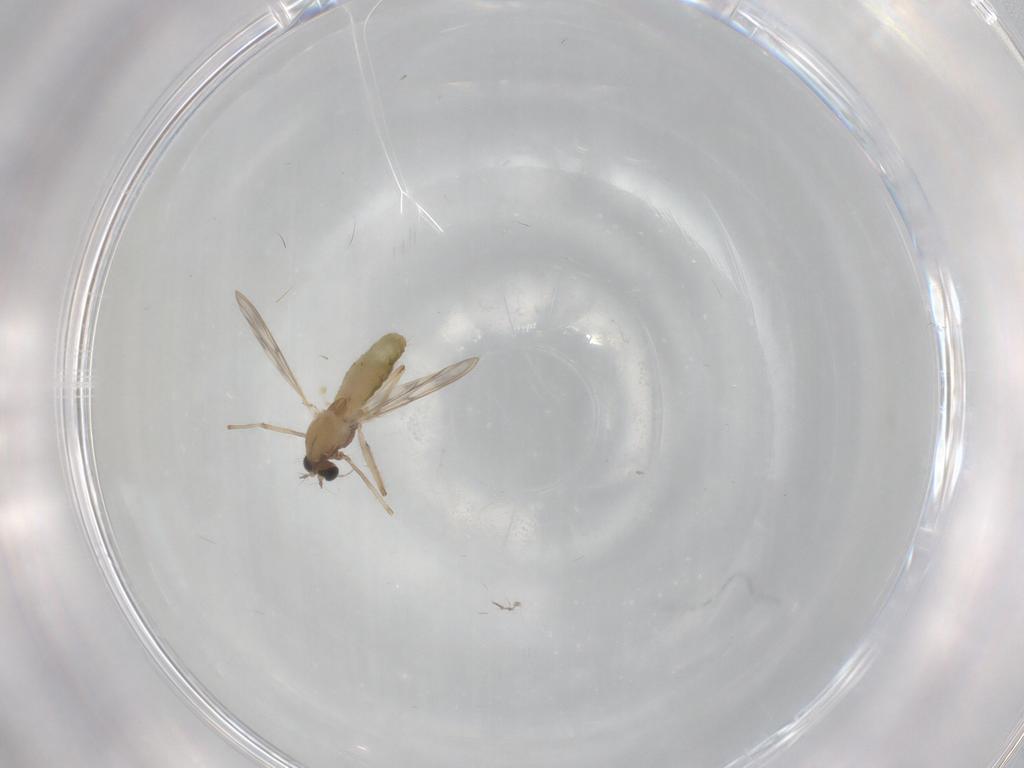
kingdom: Animalia
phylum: Arthropoda
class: Insecta
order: Diptera
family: Chironomidae
